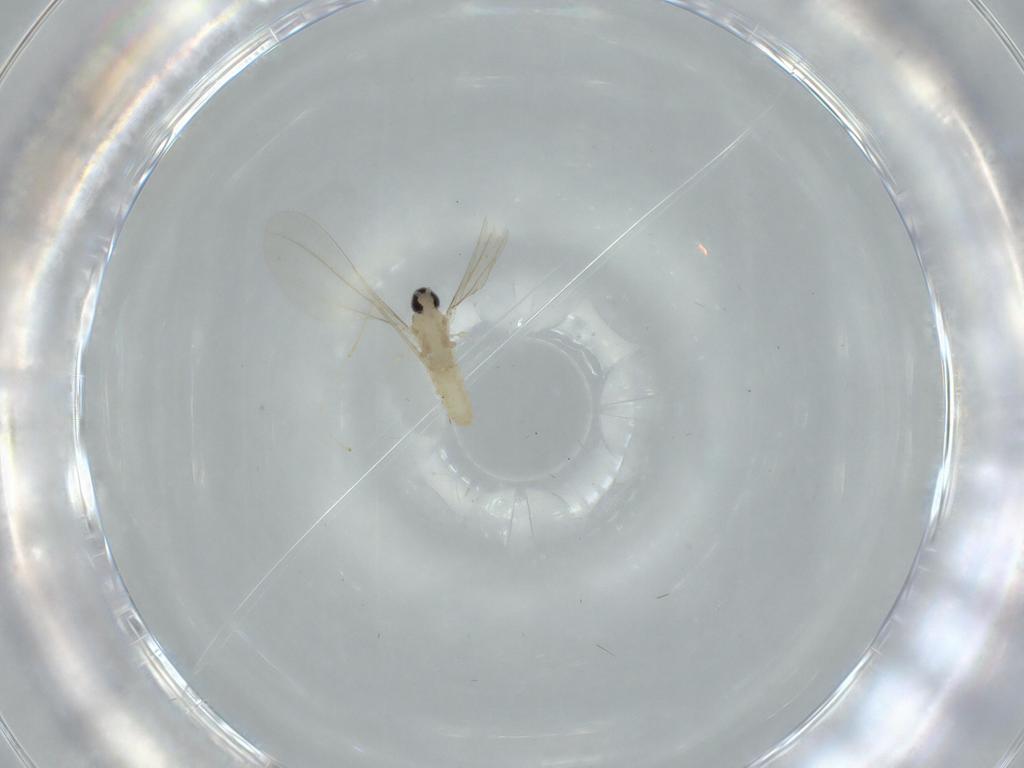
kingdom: Animalia
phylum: Arthropoda
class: Insecta
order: Diptera
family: Cecidomyiidae
